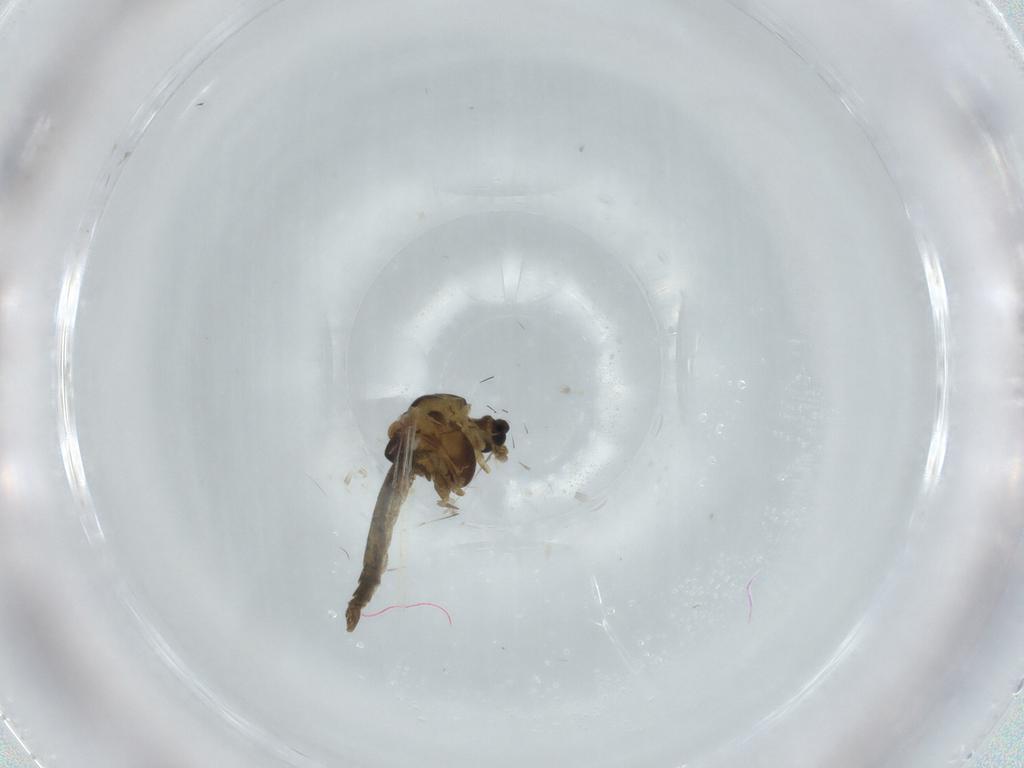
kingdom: Animalia
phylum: Arthropoda
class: Insecta
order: Diptera
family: Chironomidae
